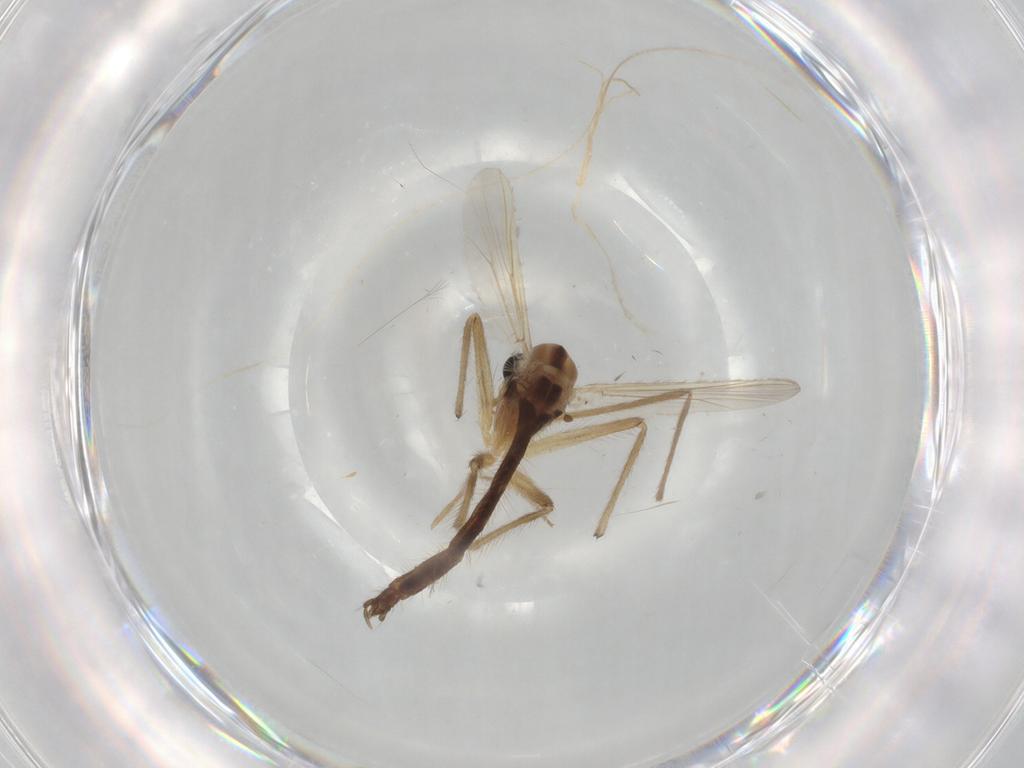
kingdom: Animalia
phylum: Arthropoda
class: Insecta
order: Diptera
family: Chironomidae
